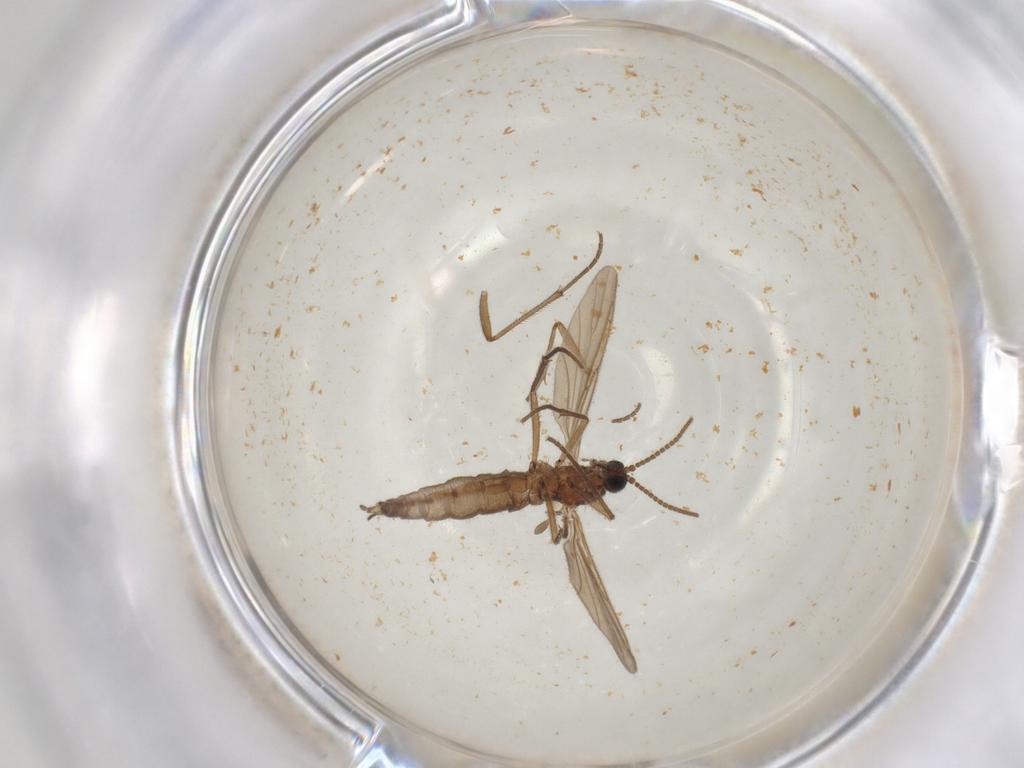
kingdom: Animalia
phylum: Arthropoda
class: Insecta
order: Diptera
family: Sciaridae
